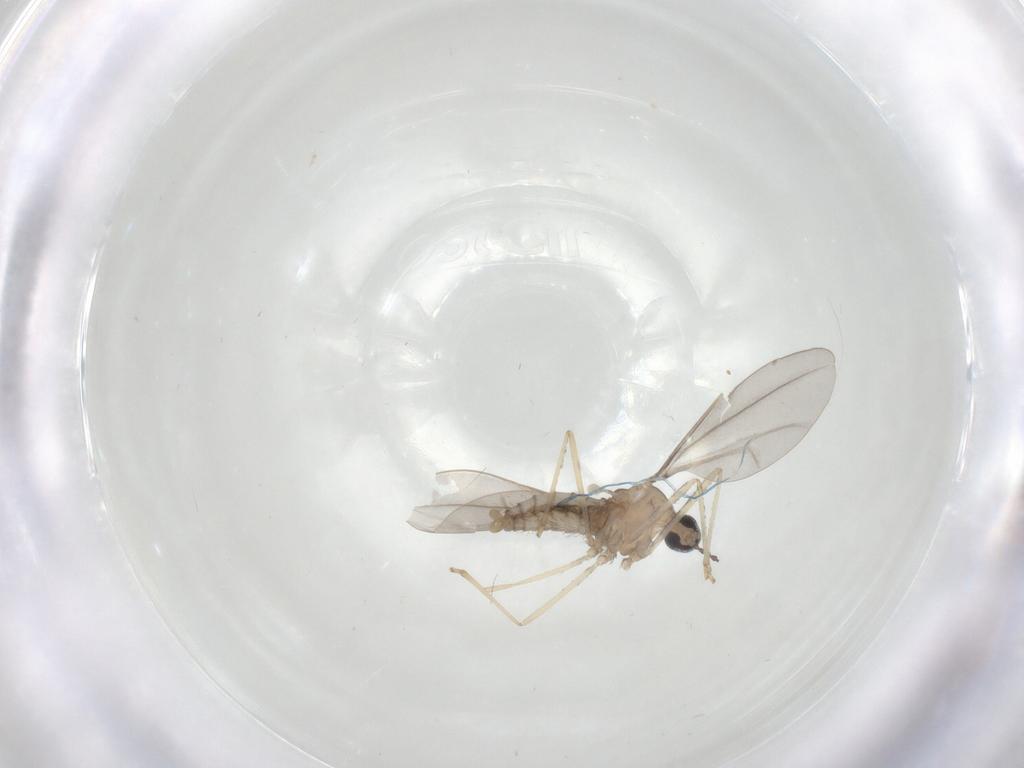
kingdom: Animalia
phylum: Arthropoda
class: Insecta
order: Diptera
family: Cecidomyiidae
